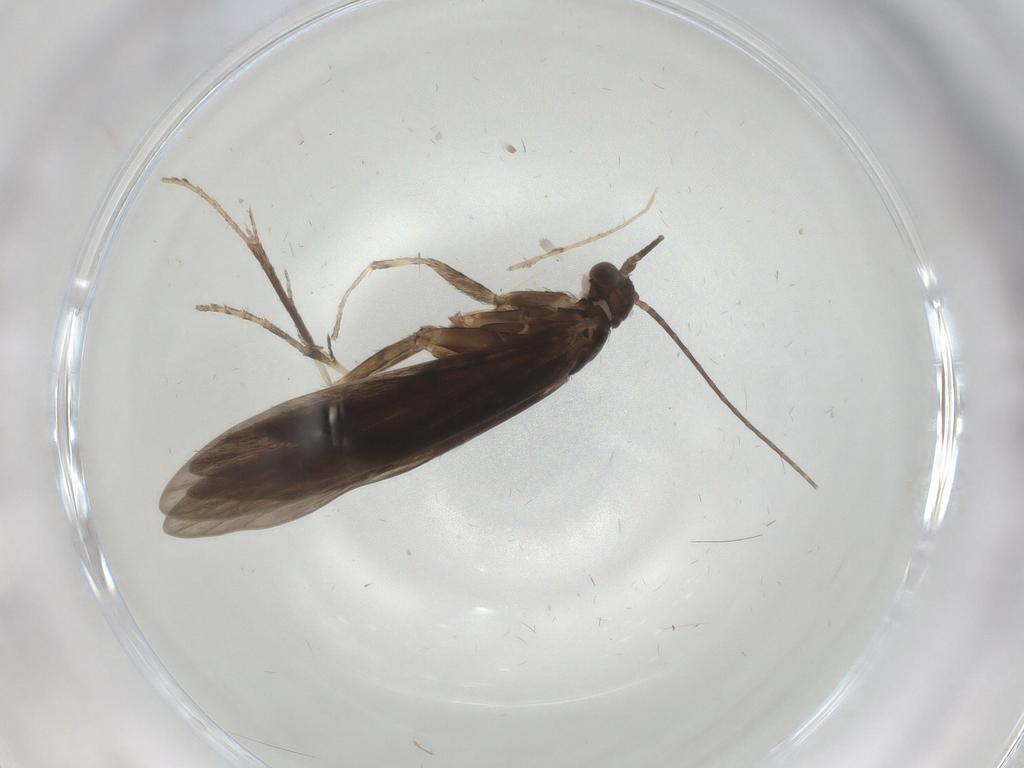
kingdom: Animalia
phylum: Arthropoda
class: Insecta
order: Trichoptera
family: Xiphocentronidae
